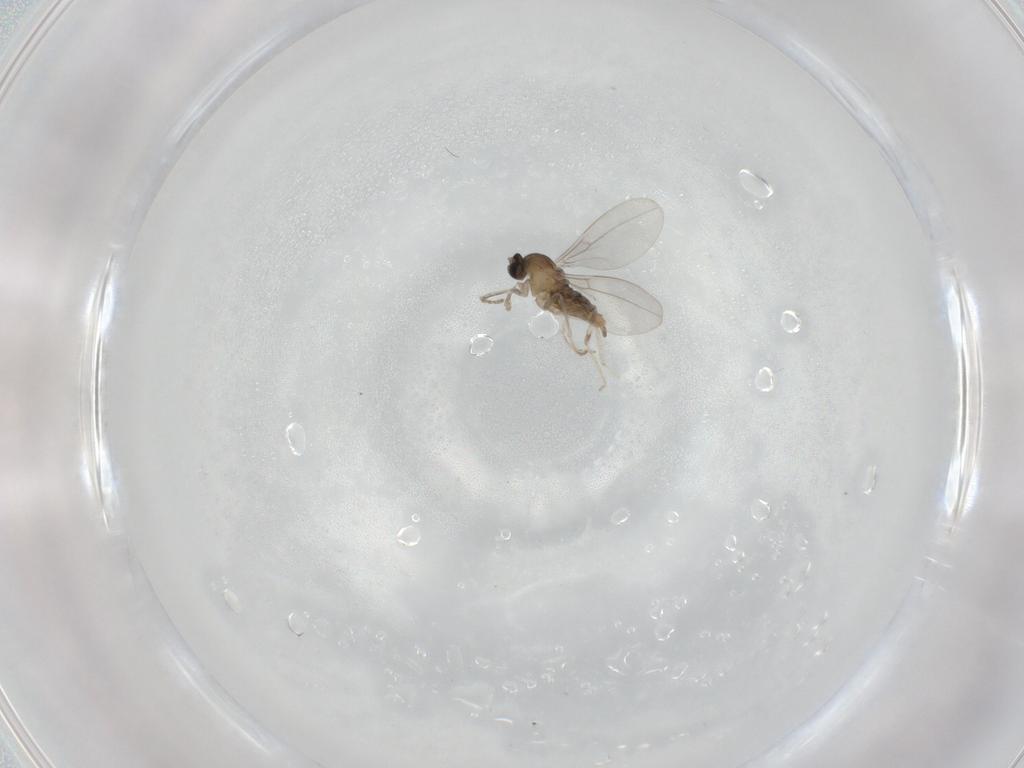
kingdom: Animalia
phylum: Arthropoda
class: Insecta
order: Diptera
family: Cecidomyiidae
